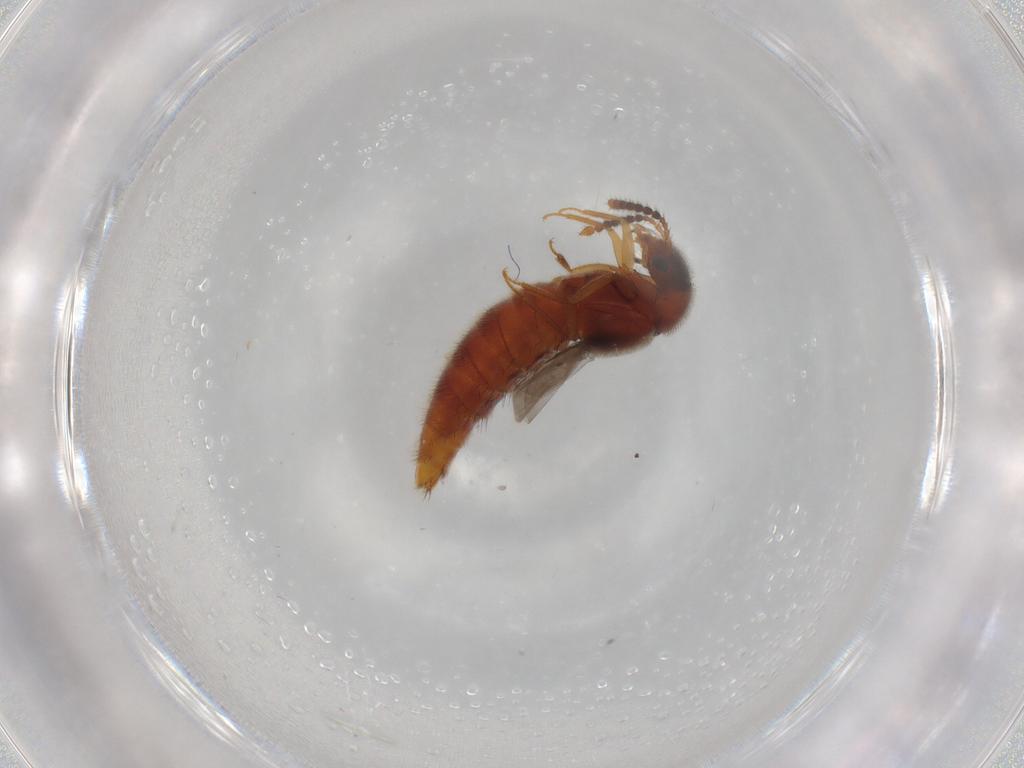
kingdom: Animalia
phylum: Arthropoda
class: Insecta
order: Coleoptera
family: Staphylinidae
